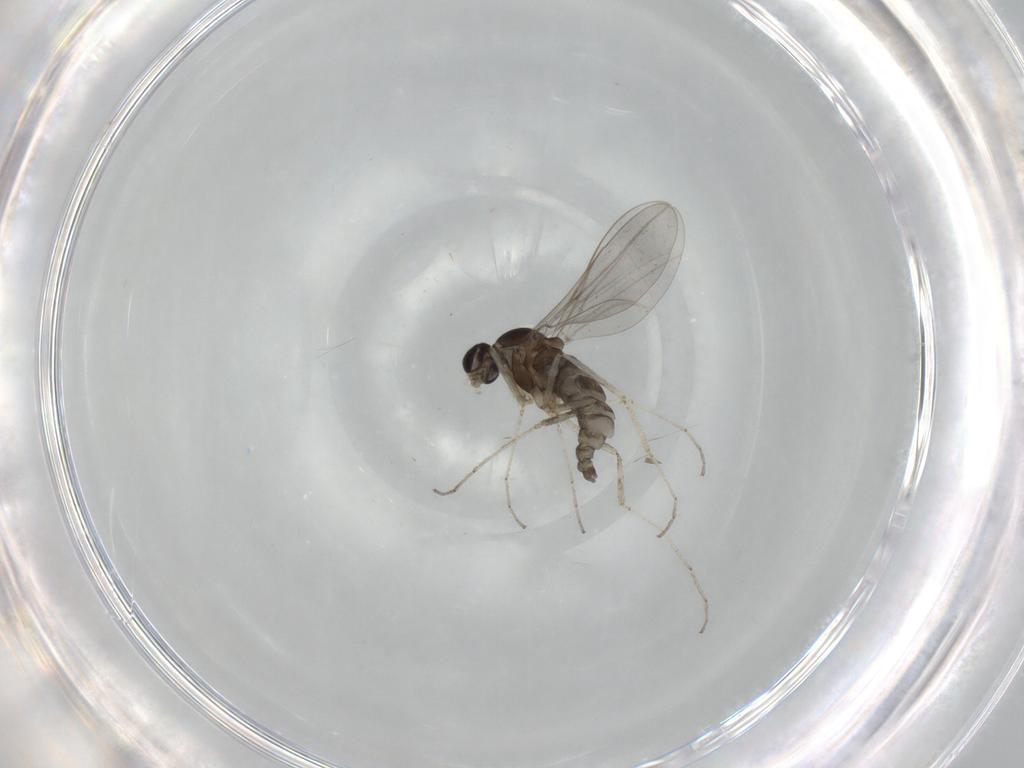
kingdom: Animalia
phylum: Arthropoda
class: Insecta
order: Diptera
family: Cecidomyiidae
